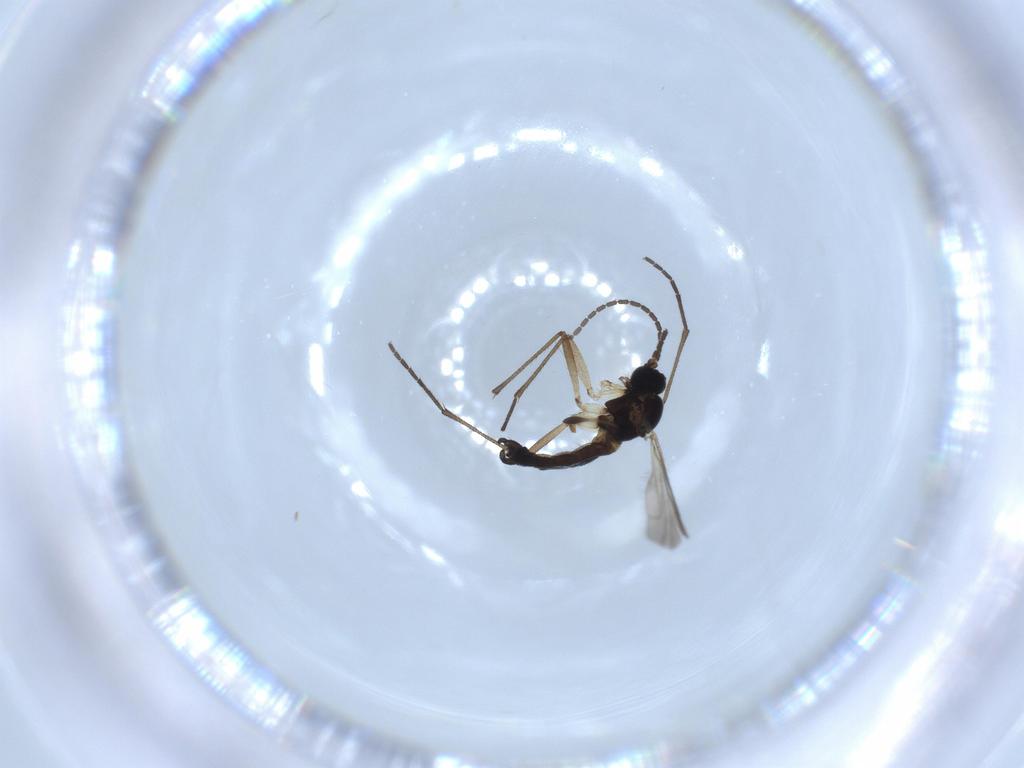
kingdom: Animalia
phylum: Arthropoda
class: Insecta
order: Diptera
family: Sciaridae
